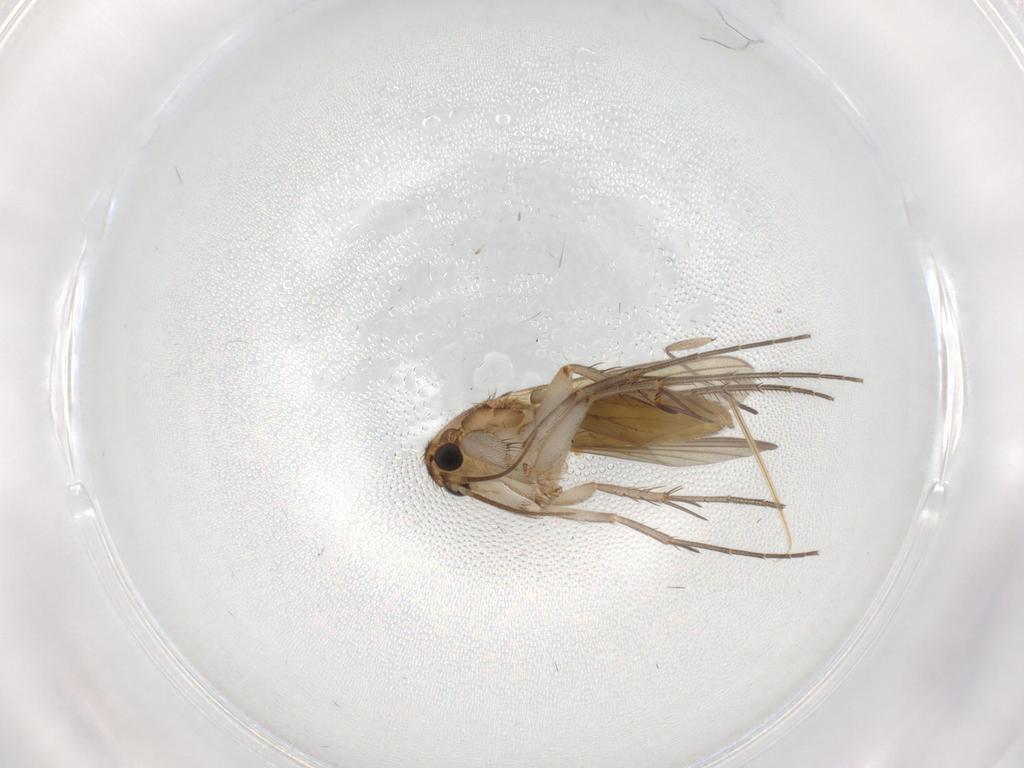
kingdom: Animalia
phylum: Arthropoda
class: Insecta
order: Diptera
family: Mycetophilidae
